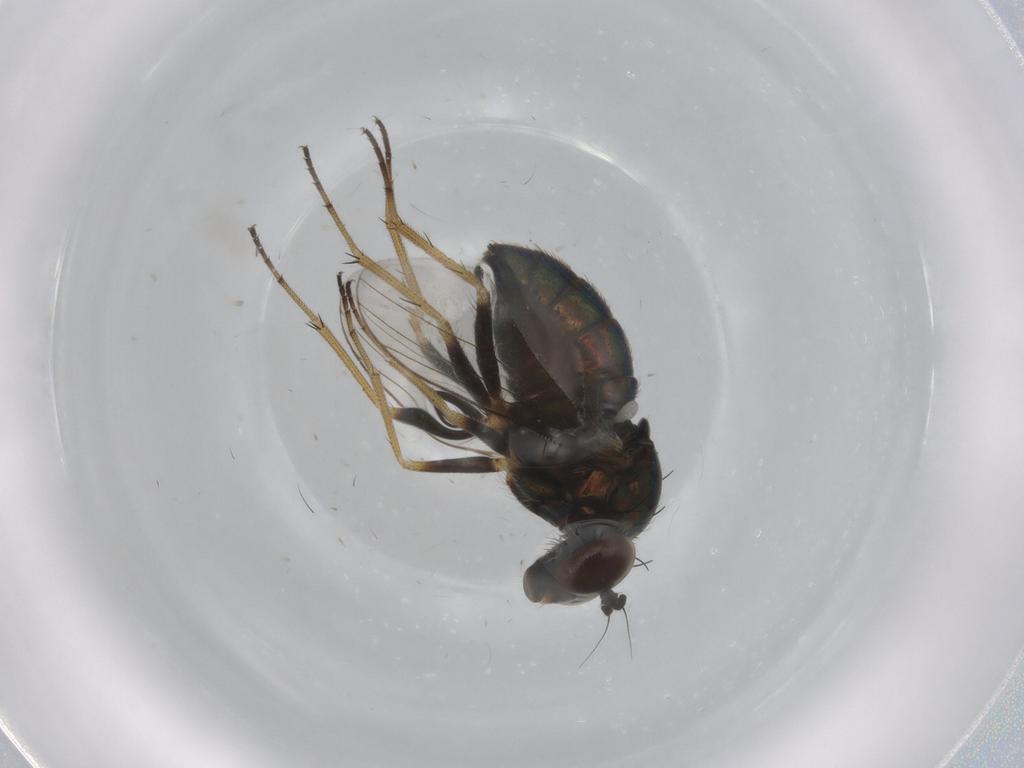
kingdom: Animalia
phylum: Arthropoda
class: Insecta
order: Diptera
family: Dolichopodidae
